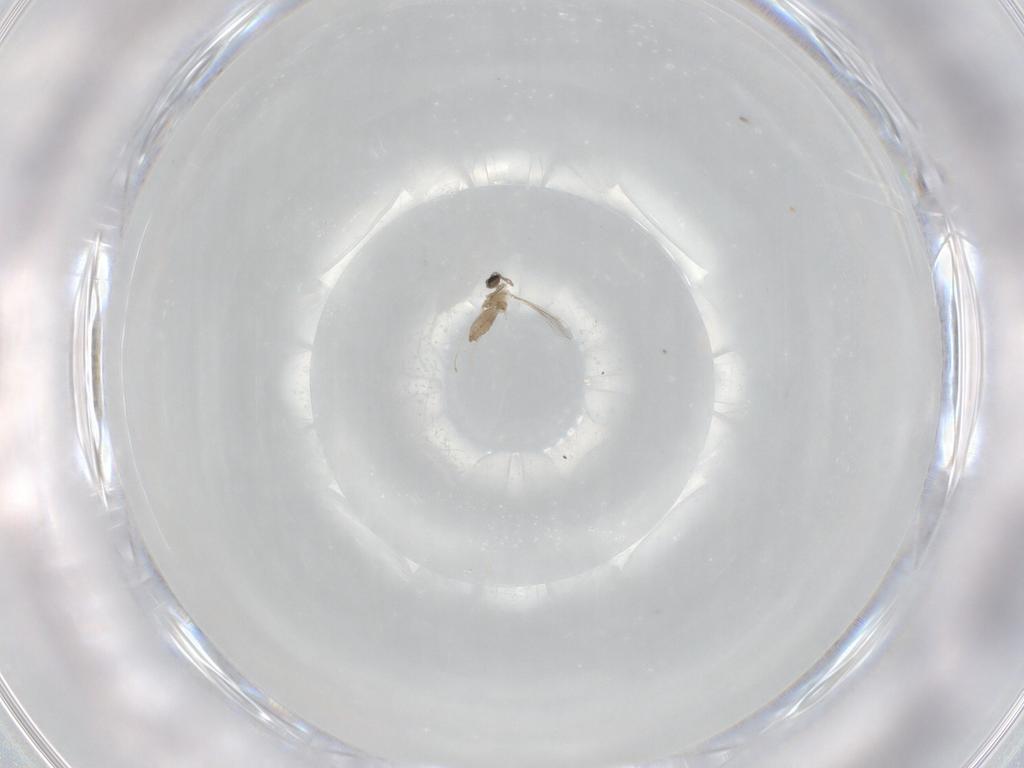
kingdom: Animalia
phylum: Arthropoda
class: Insecta
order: Diptera
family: Cecidomyiidae
